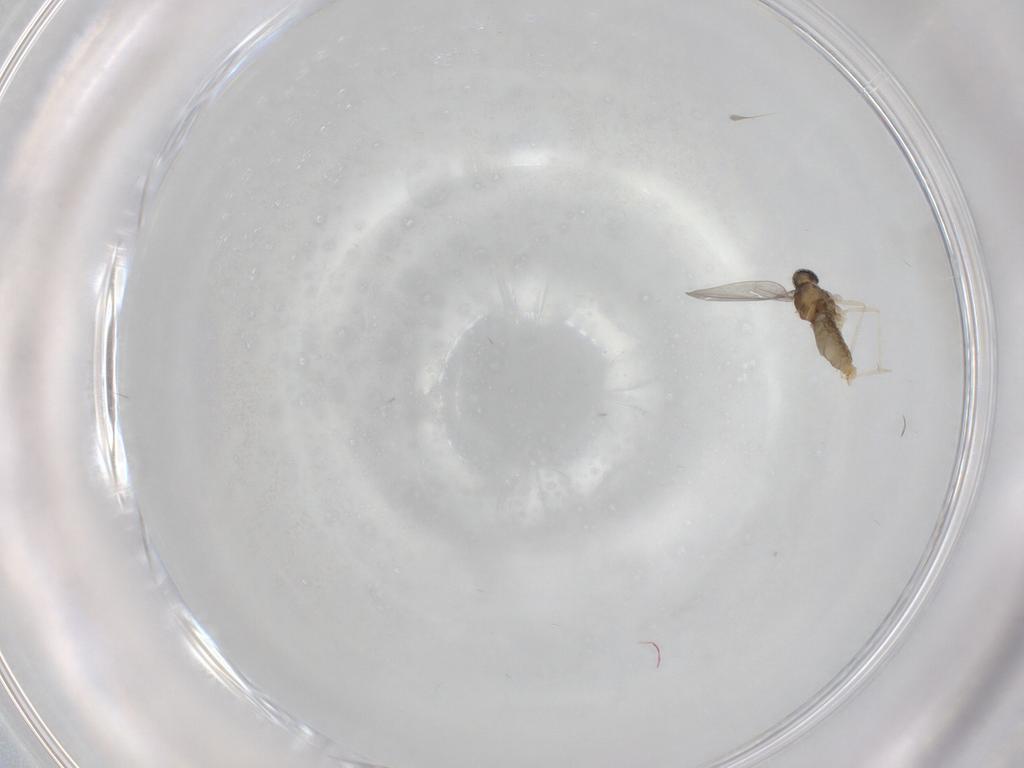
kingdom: Animalia
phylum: Arthropoda
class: Insecta
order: Diptera
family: Cecidomyiidae
